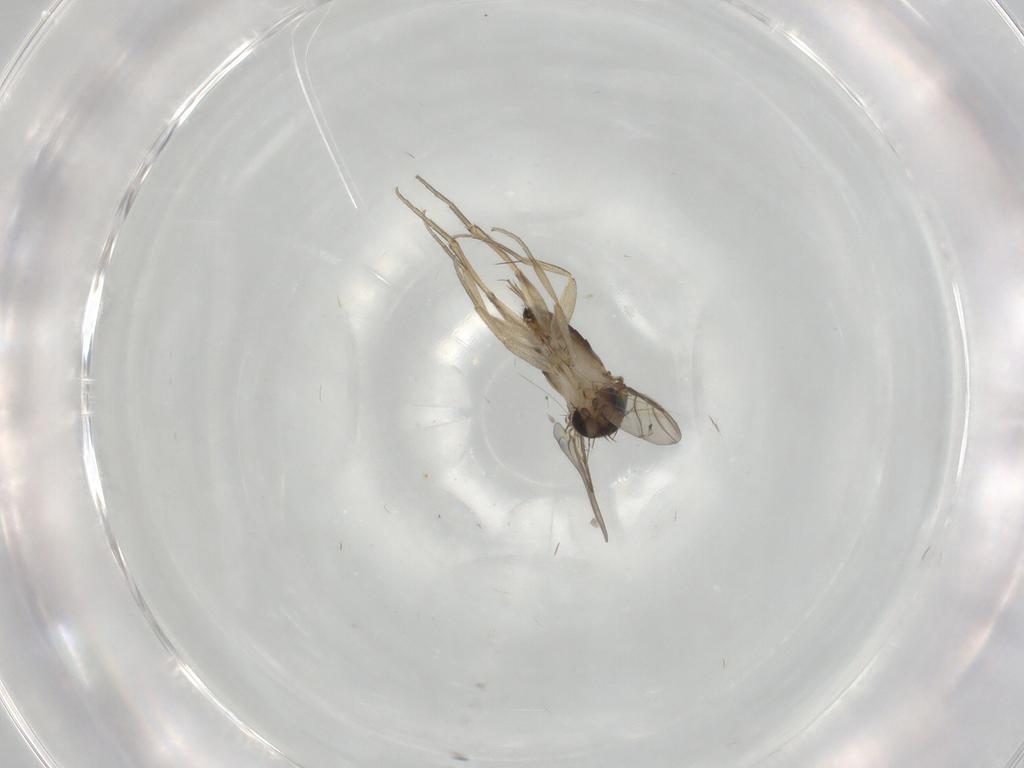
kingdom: Animalia
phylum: Arthropoda
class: Insecta
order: Diptera
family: Phoridae
